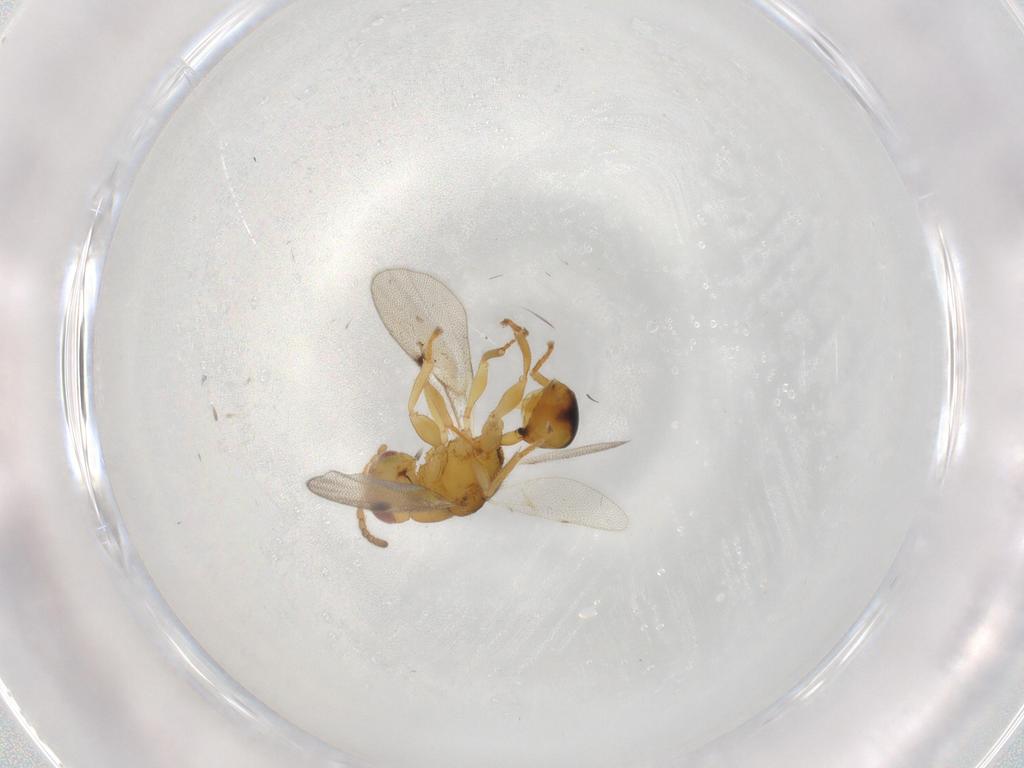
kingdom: Animalia
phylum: Arthropoda
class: Insecta
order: Hymenoptera
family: Eurytomidae
